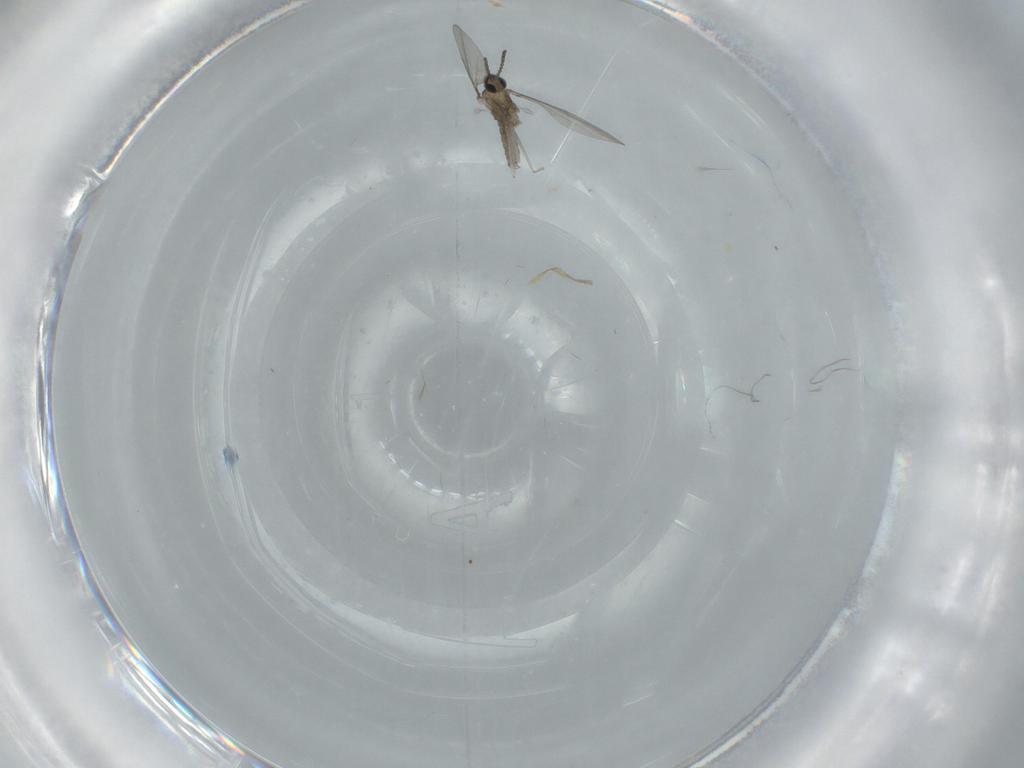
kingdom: Animalia
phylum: Arthropoda
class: Insecta
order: Diptera
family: Cecidomyiidae
